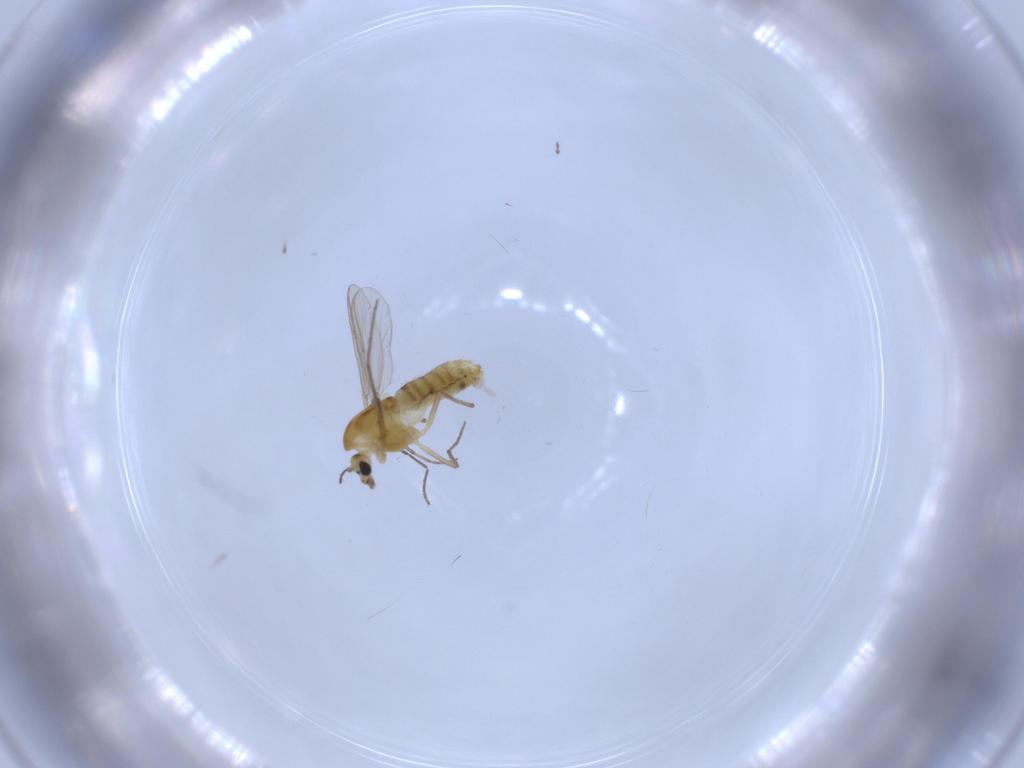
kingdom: Animalia
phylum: Arthropoda
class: Insecta
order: Diptera
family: Chironomidae
